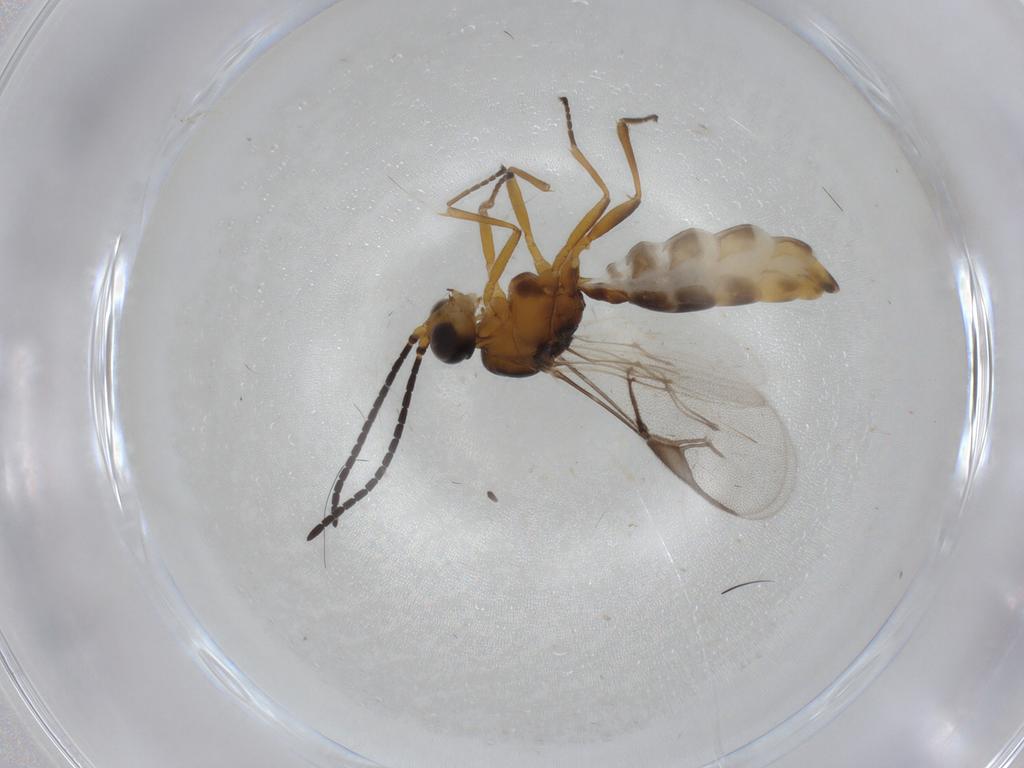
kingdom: Animalia
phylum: Arthropoda
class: Insecta
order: Hymenoptera
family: Braconidae
